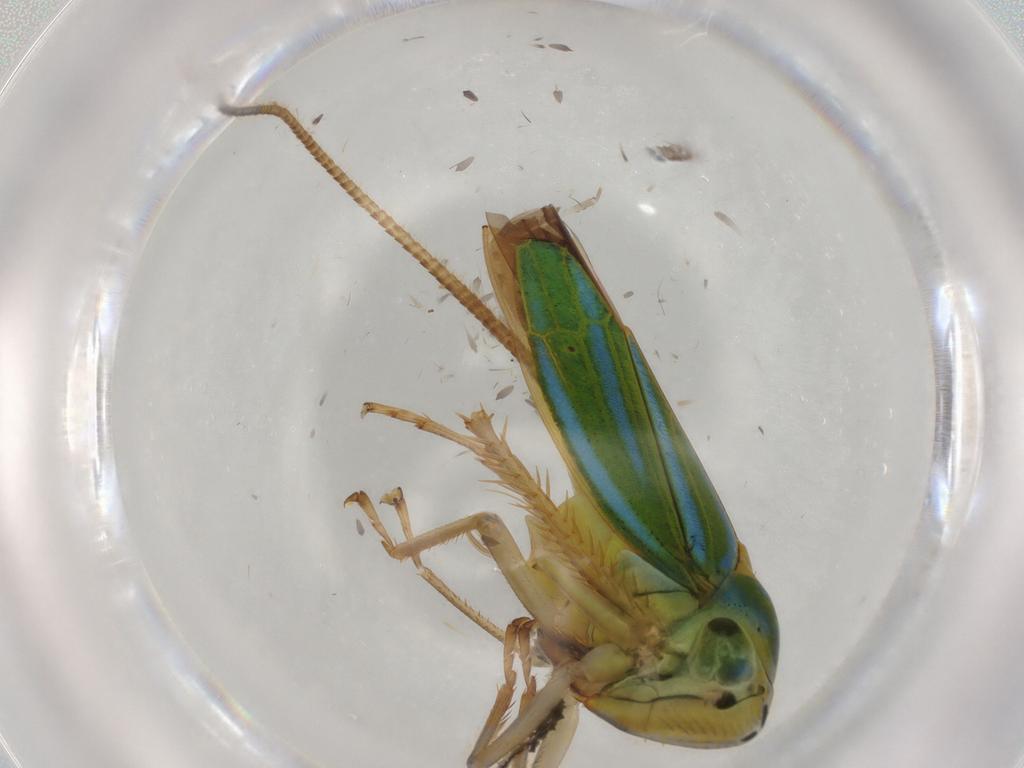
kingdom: Animalia
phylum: Arthropoda
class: Insecta
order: Hemiptera
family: Cicadellidae
